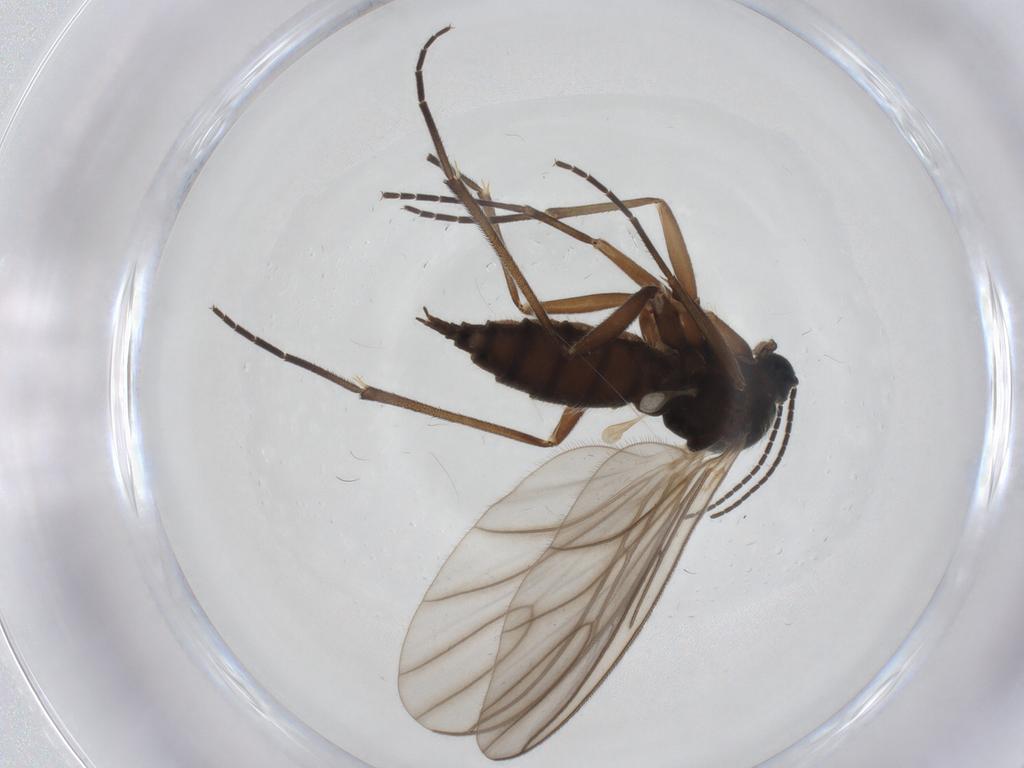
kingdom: Animalia
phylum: Arthropoda
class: Insecta
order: Diptera
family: Sciaridae
